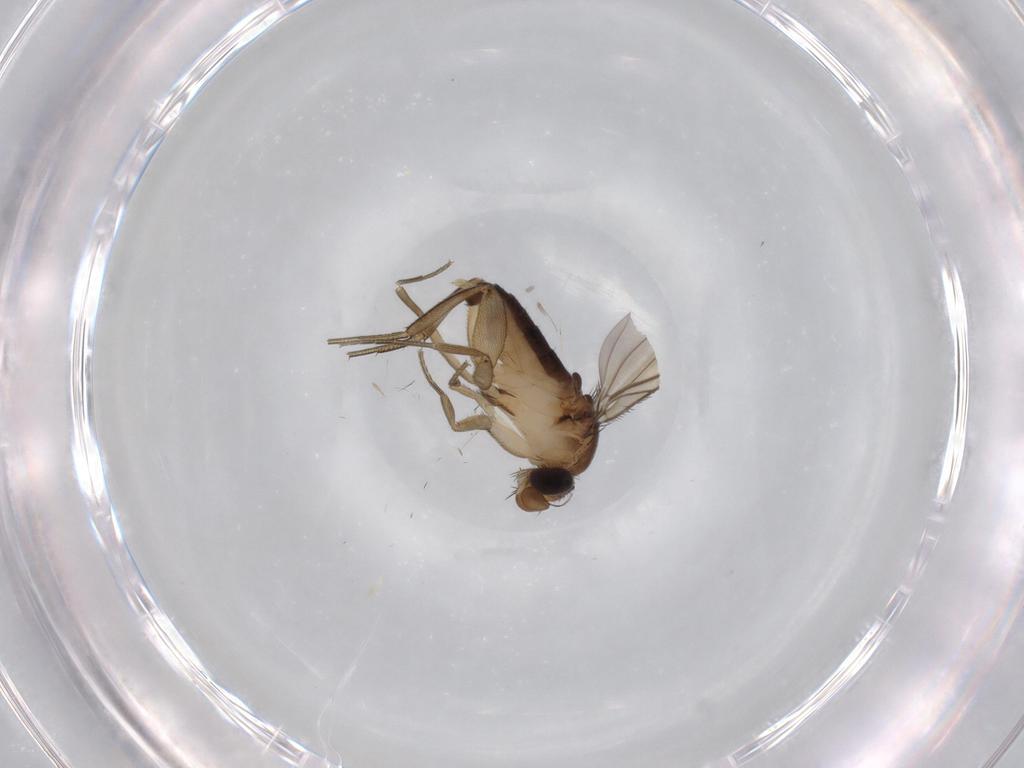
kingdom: Animalia
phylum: Arthropoda
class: Insecta
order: Diptera
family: Phoridae
